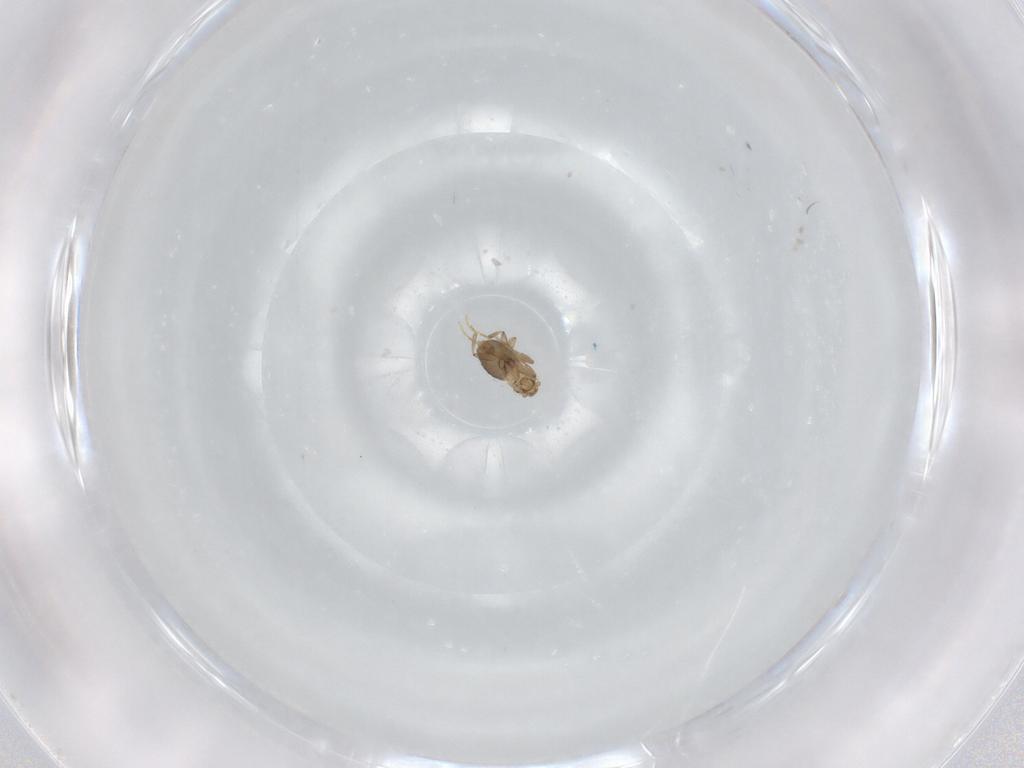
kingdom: Animalia
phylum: Arthropoda
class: Insecta
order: Diptera
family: Phoridae
